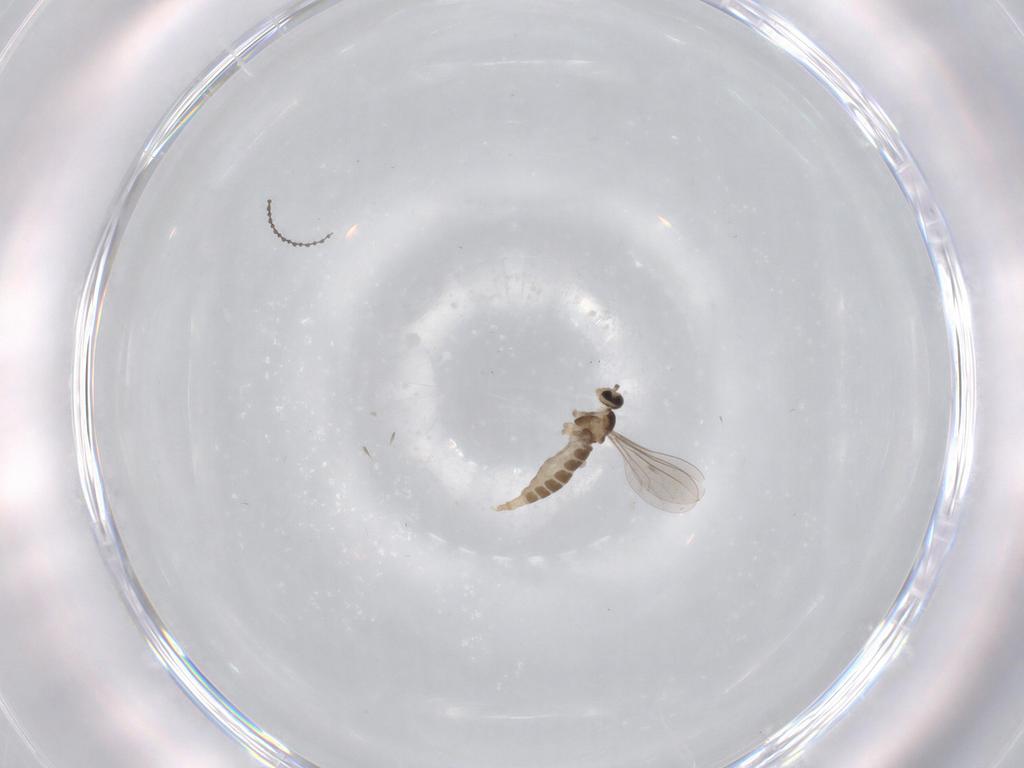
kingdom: Animalia
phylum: Arthropoda
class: Insecta
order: Diptera
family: Cecidomyiidae
